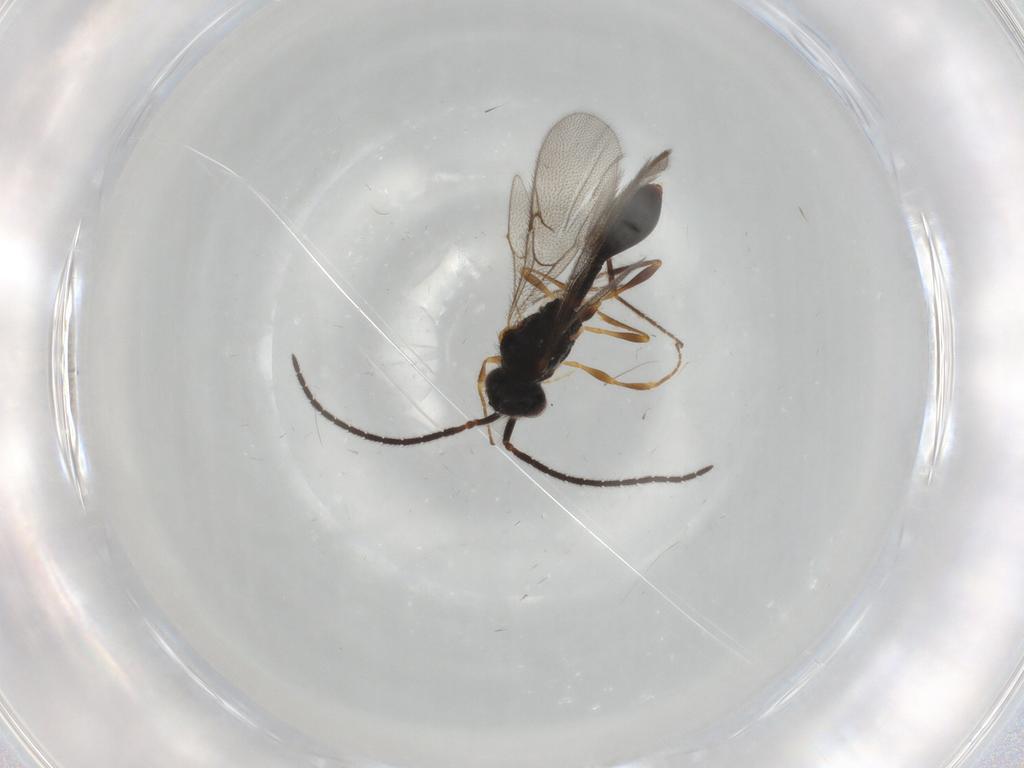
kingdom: Animalia
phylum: Arthropoda
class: Insecta
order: Hymenoptera
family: Diapriidae
